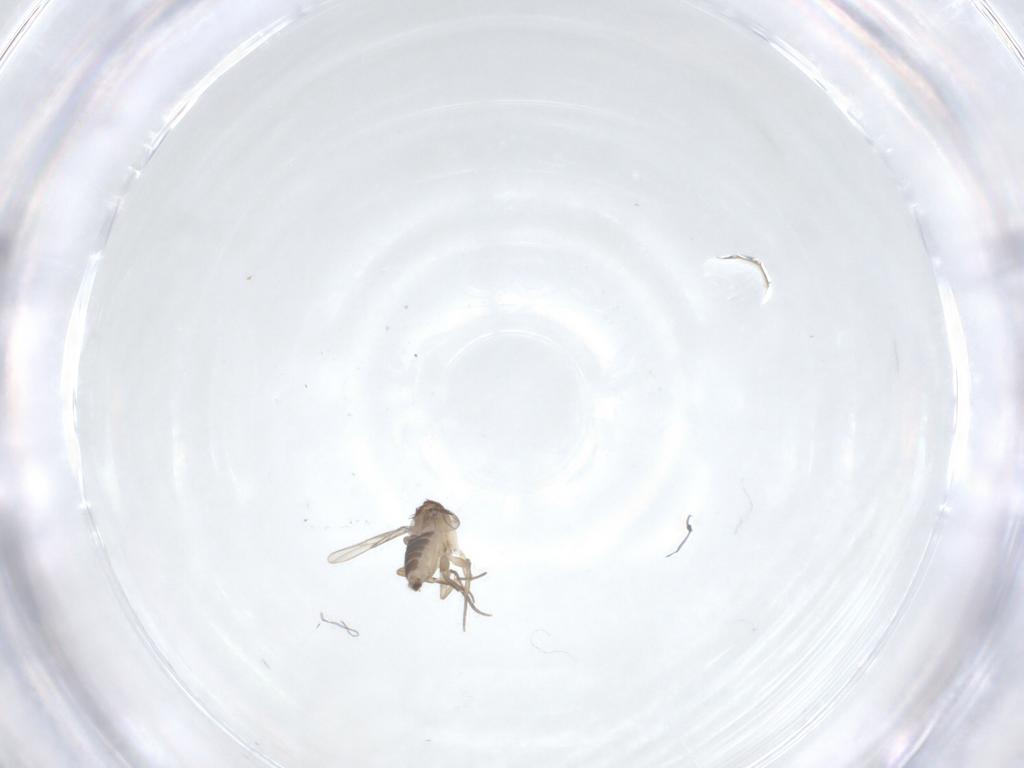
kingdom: Animalia
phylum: Arthropoda
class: Insecta
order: Diptera
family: Phoridae
